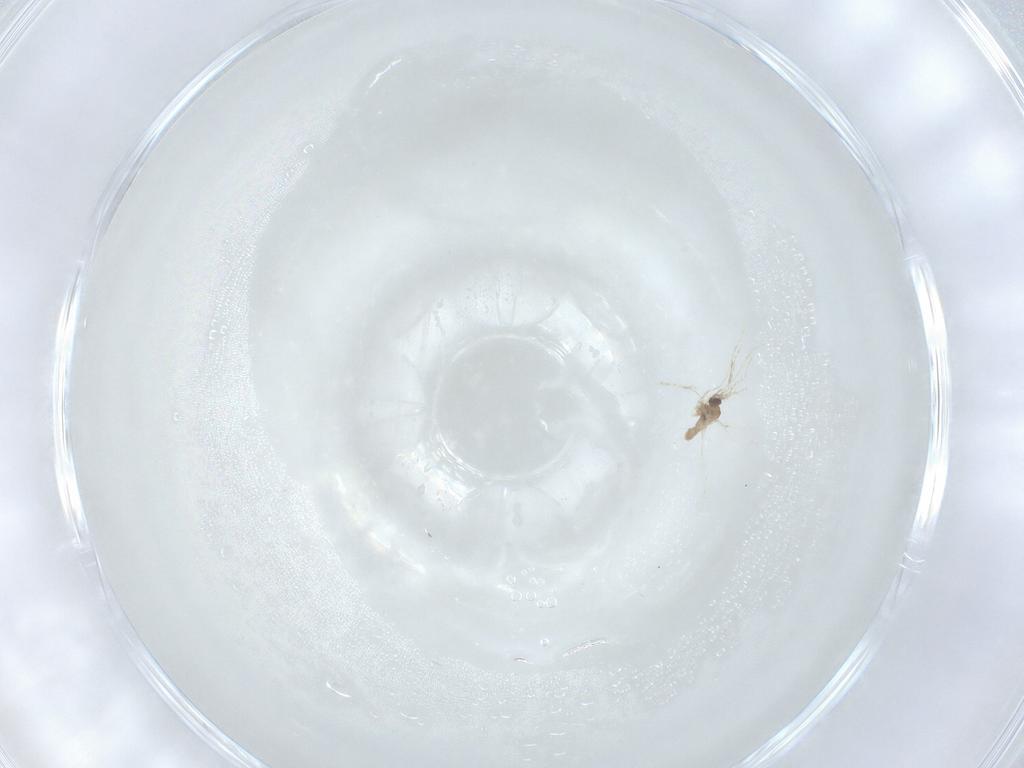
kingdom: Animalia
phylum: Arthropoda
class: Insecta
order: Diptera
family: Cecidomyiidae
